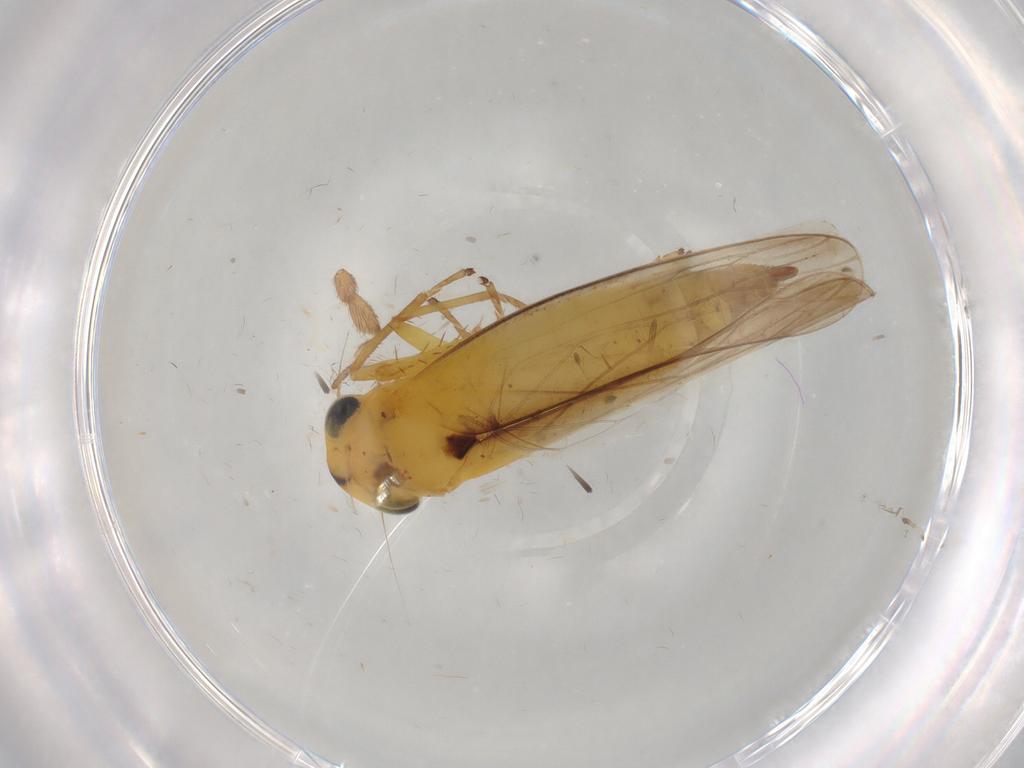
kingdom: Animalia
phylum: Arthropoda
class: Insecta
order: Hemiptera
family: Cicadellidae
